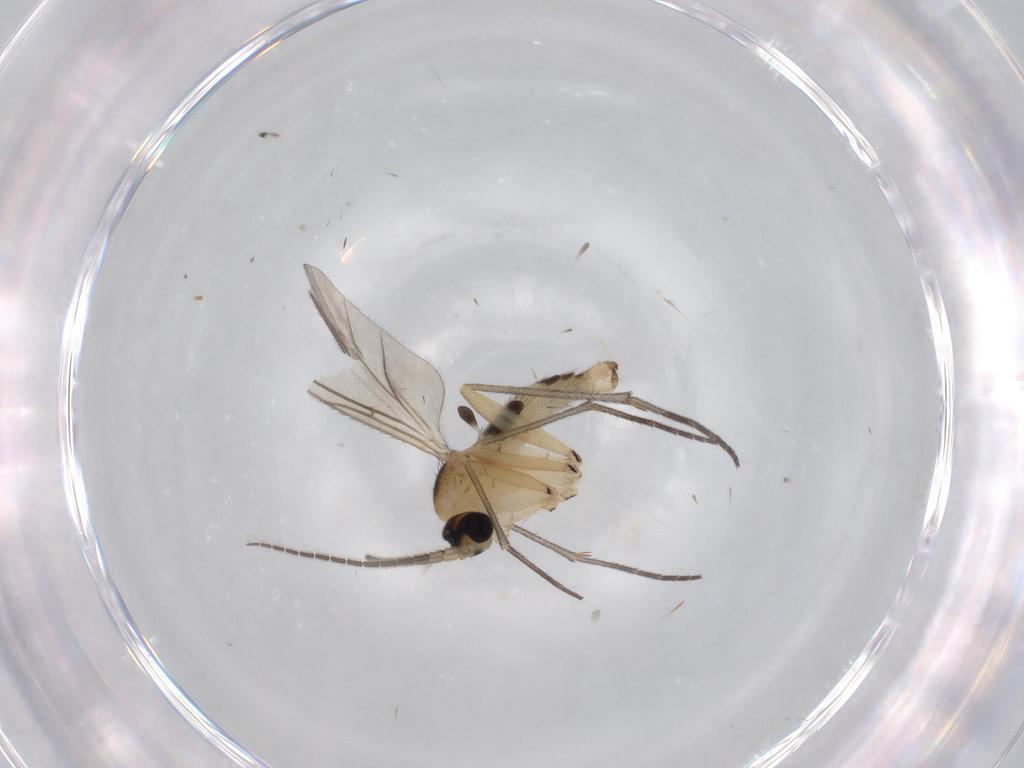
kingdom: Animalia
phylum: Arthropoda
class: Insecta
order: Diptera
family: Sciaridae
